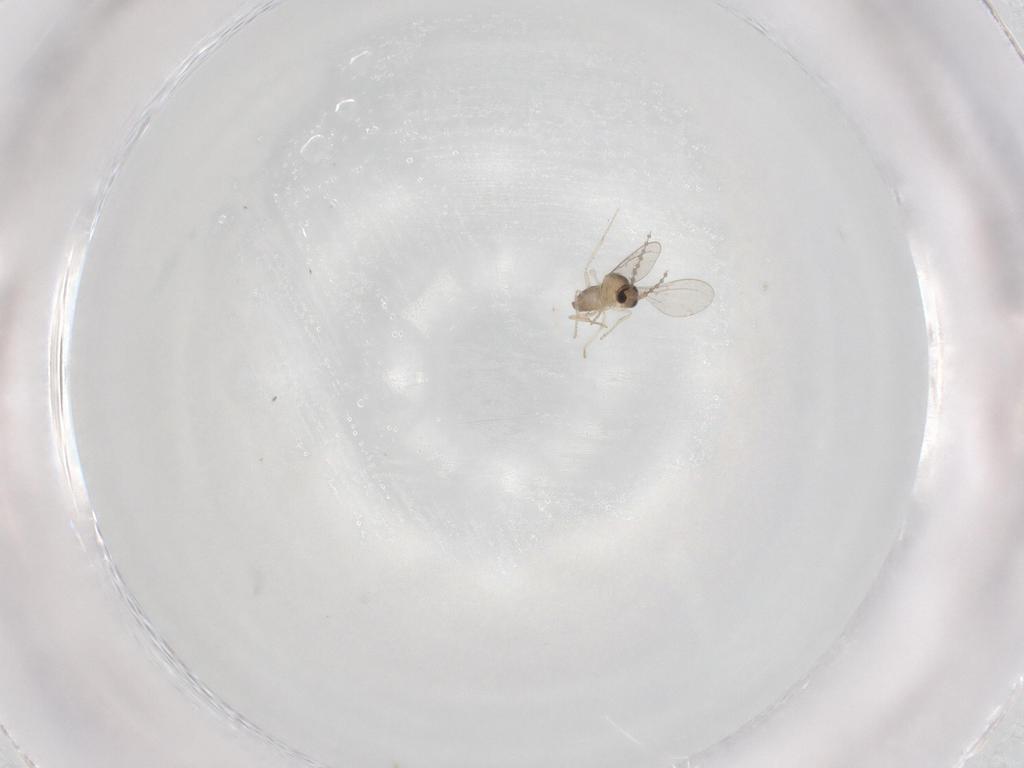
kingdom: Animalia
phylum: Arthropoda
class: Insecta
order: Diptera
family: Cecidomyiidae
